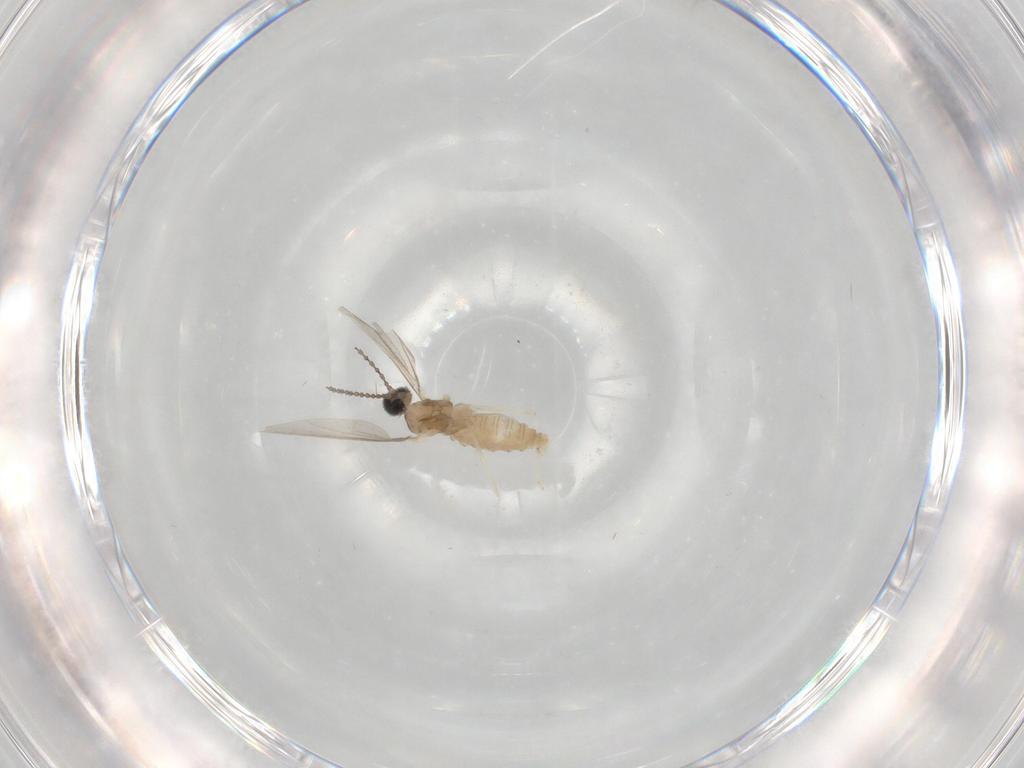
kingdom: Animalia
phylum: Arthropoda
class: Insecta
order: Diptera
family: Cecidomyiidae
